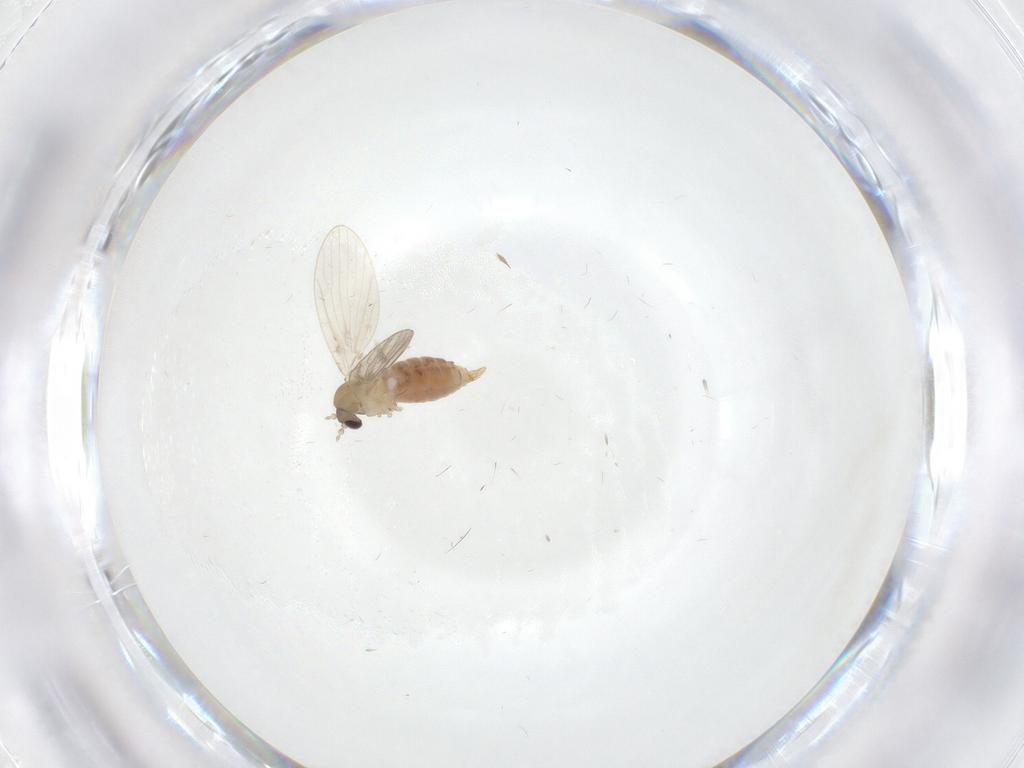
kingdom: Animalia
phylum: Arthropoda
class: Insecta
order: Diptera
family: Psychodidae
